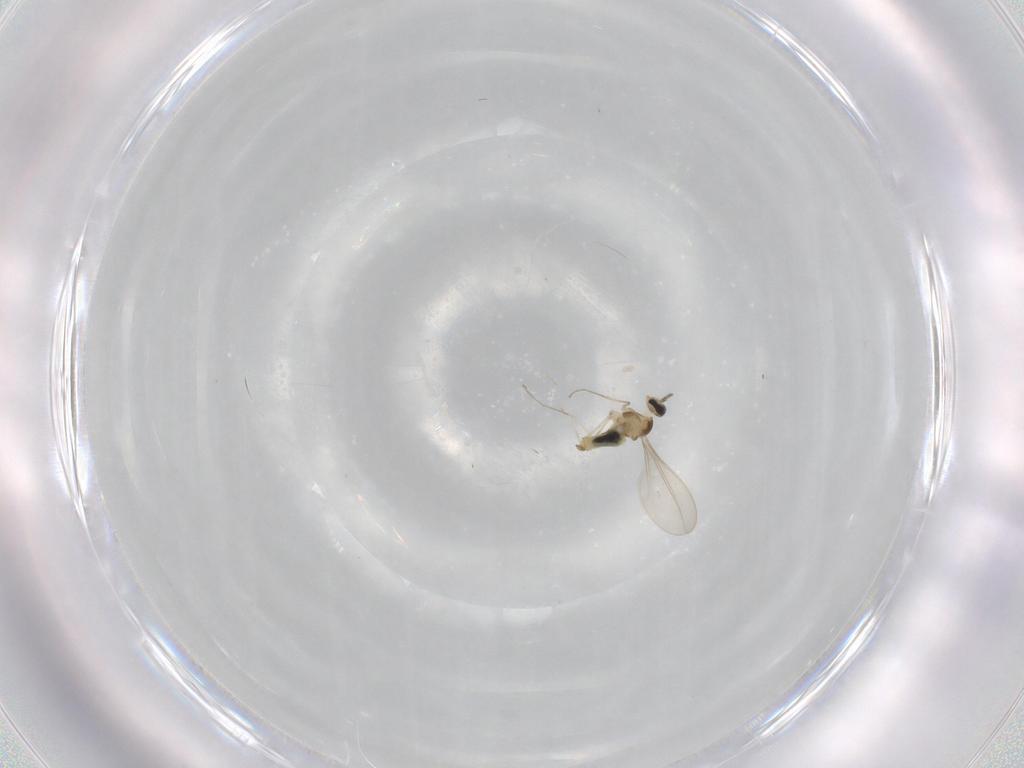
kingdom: Animalia
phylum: Arthropoda
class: Insecta
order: Diptera
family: Cecidomyiidae
